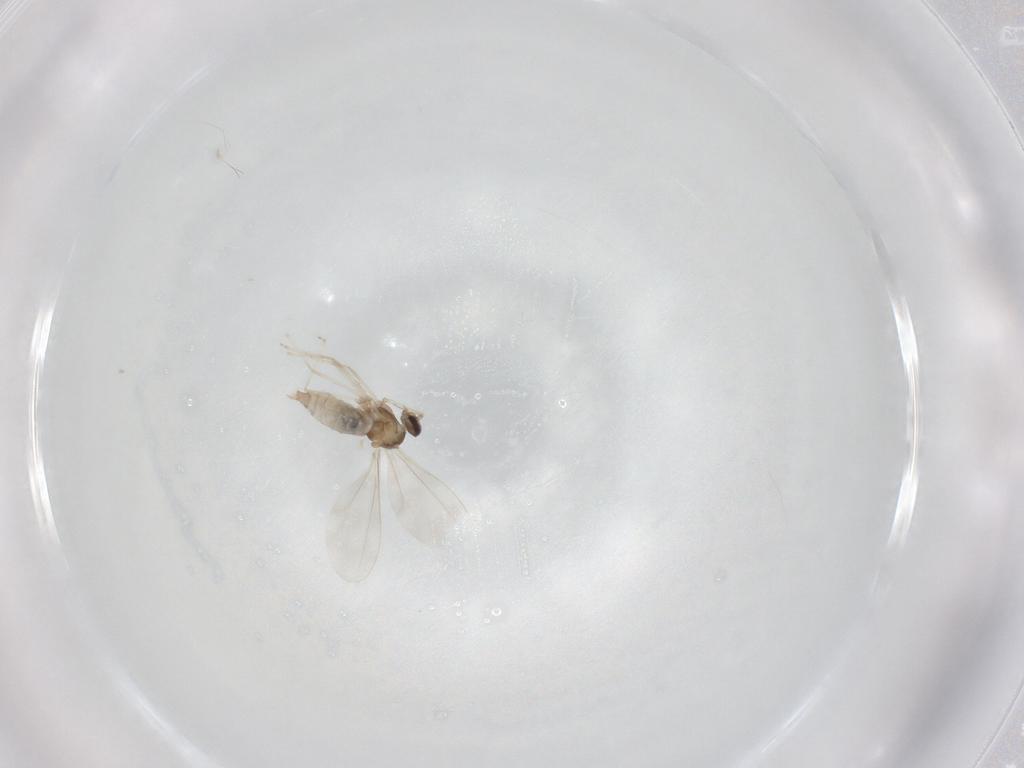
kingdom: Animalia
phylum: Arthropoda
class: Insecta
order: Diptera
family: Cecidomyiidae
